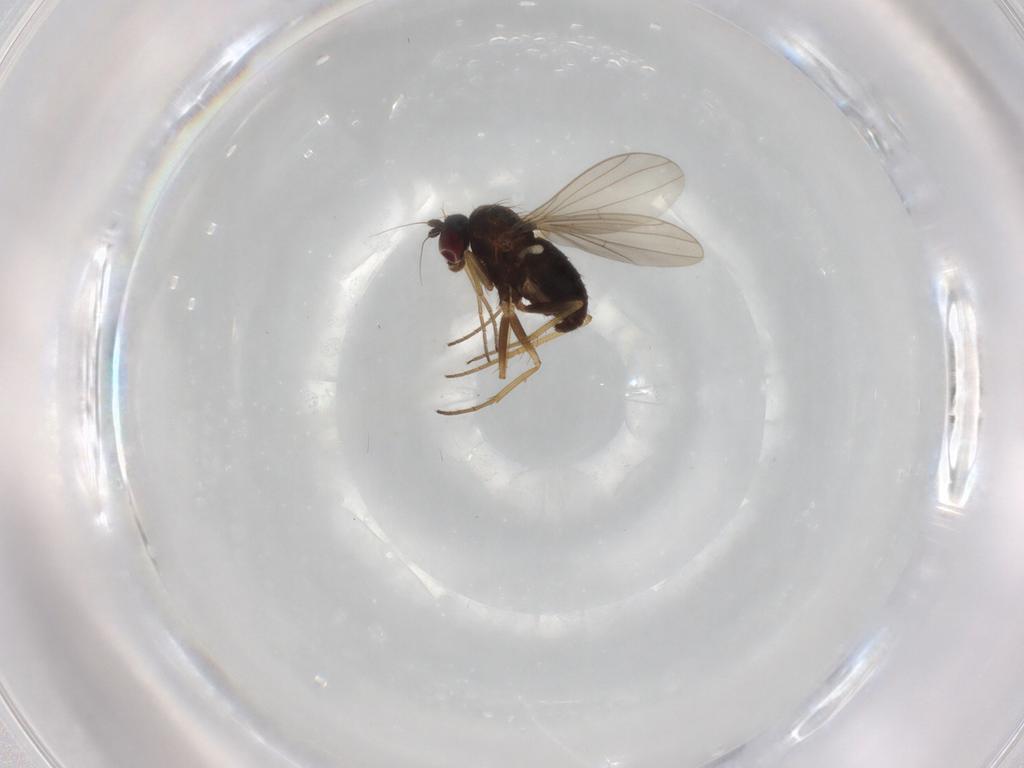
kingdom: Animalia
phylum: Arthropoda
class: Insecta
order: Diptera
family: Dolichopodidae
